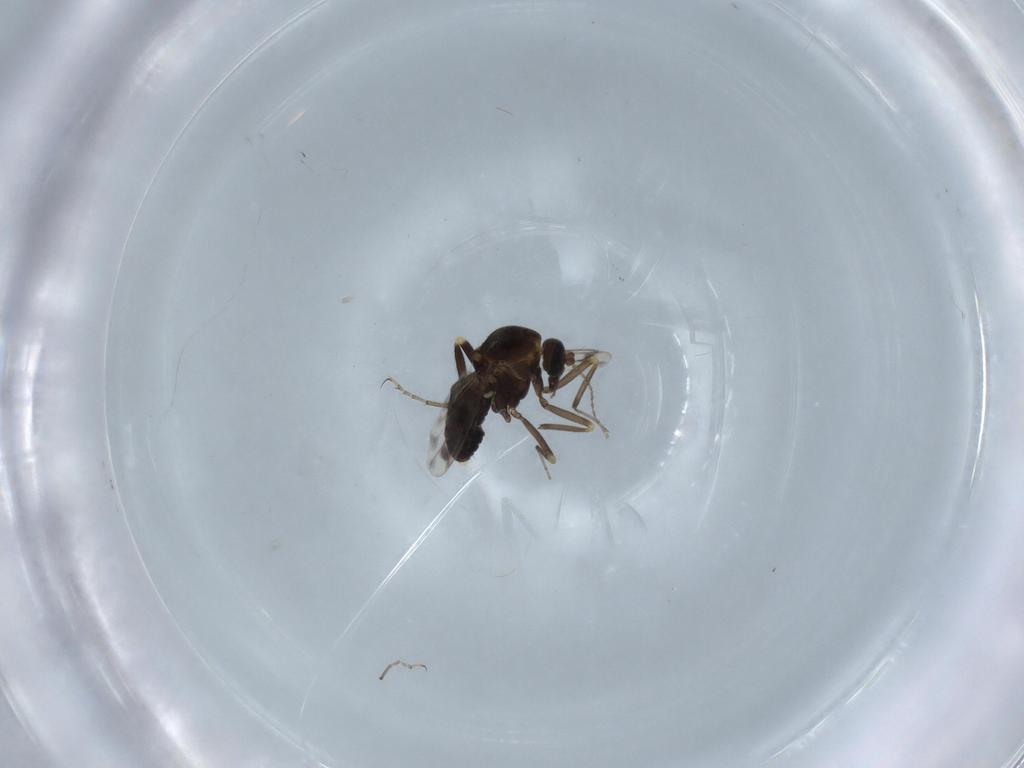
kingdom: Animalia
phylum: Arthropoda
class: Insecta
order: Diptera
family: Ceratopogonidae
